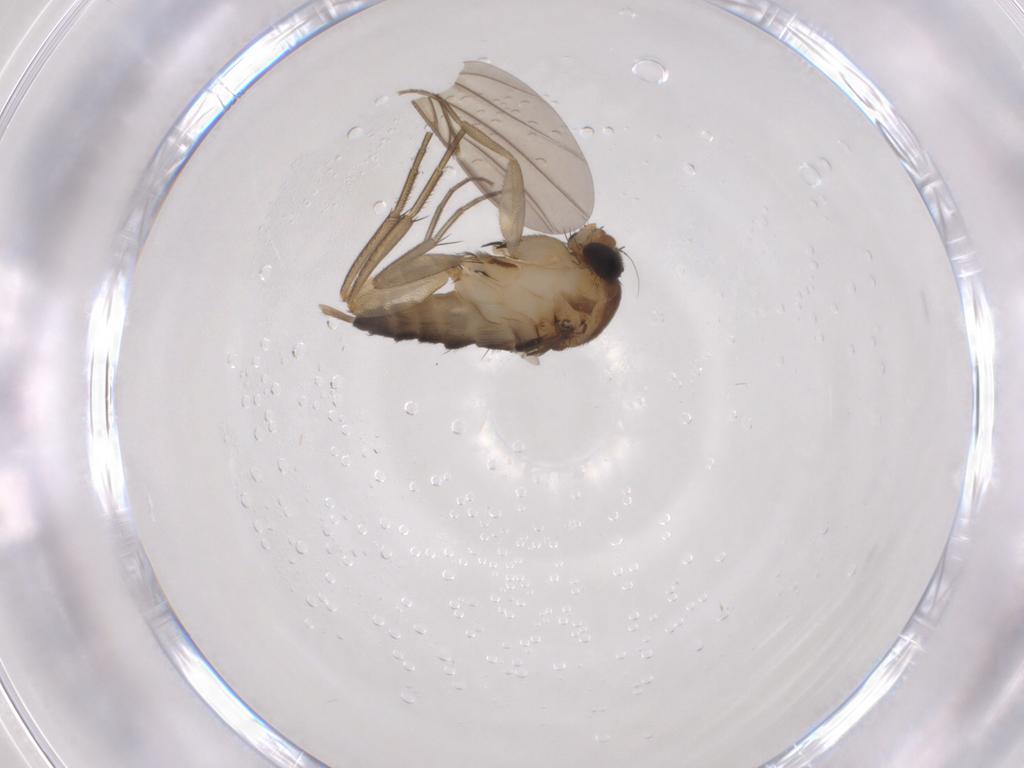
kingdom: Animalia
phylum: Arthropoda
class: Insecta
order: Diptera
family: Phoridae
